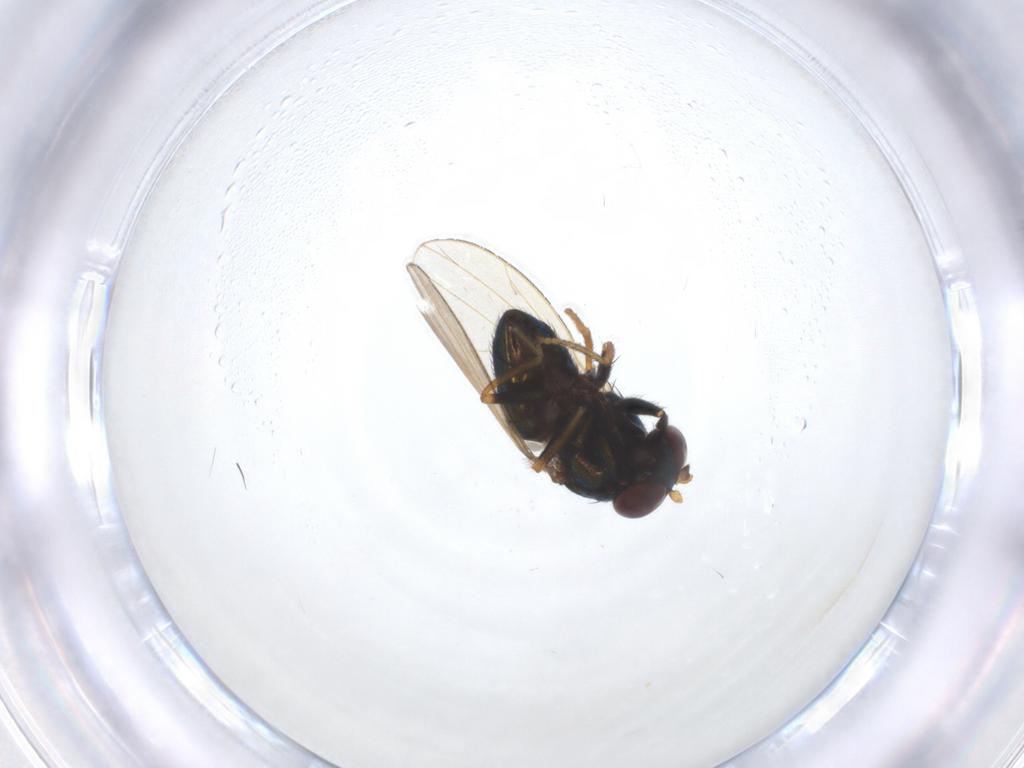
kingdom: Animalia
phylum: Arthropoda
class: Insecta
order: Diptera
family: Ephydridae
